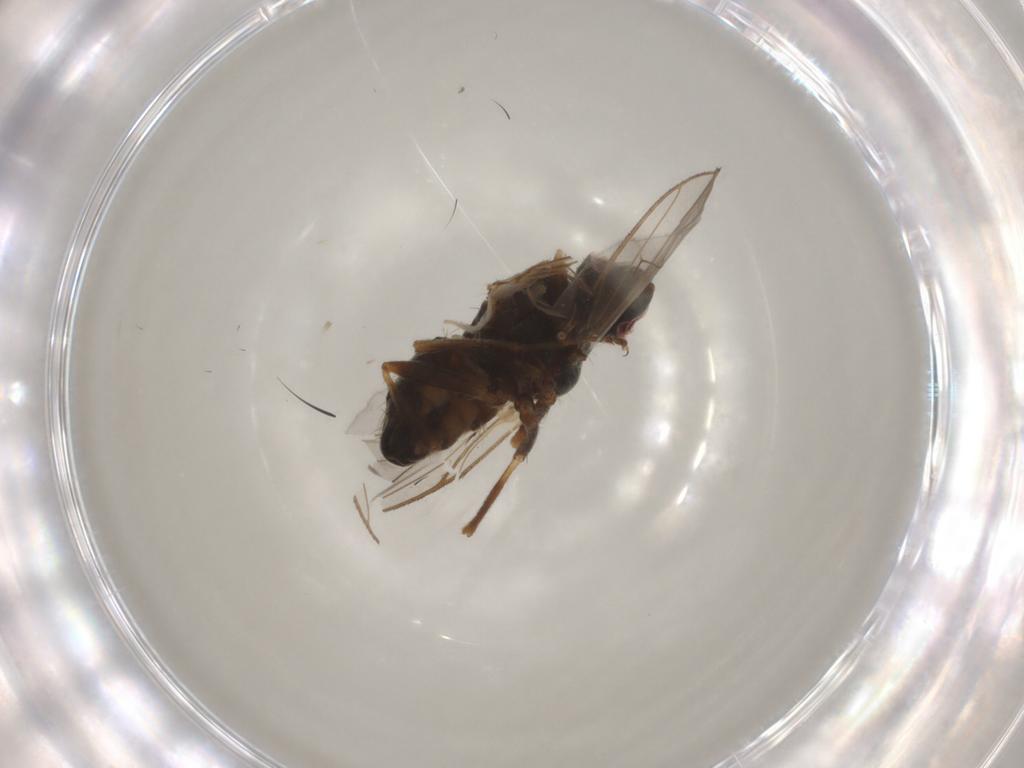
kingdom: Animalia
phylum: Arthropoda
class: Insecta
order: Diptera
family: Muscidae
